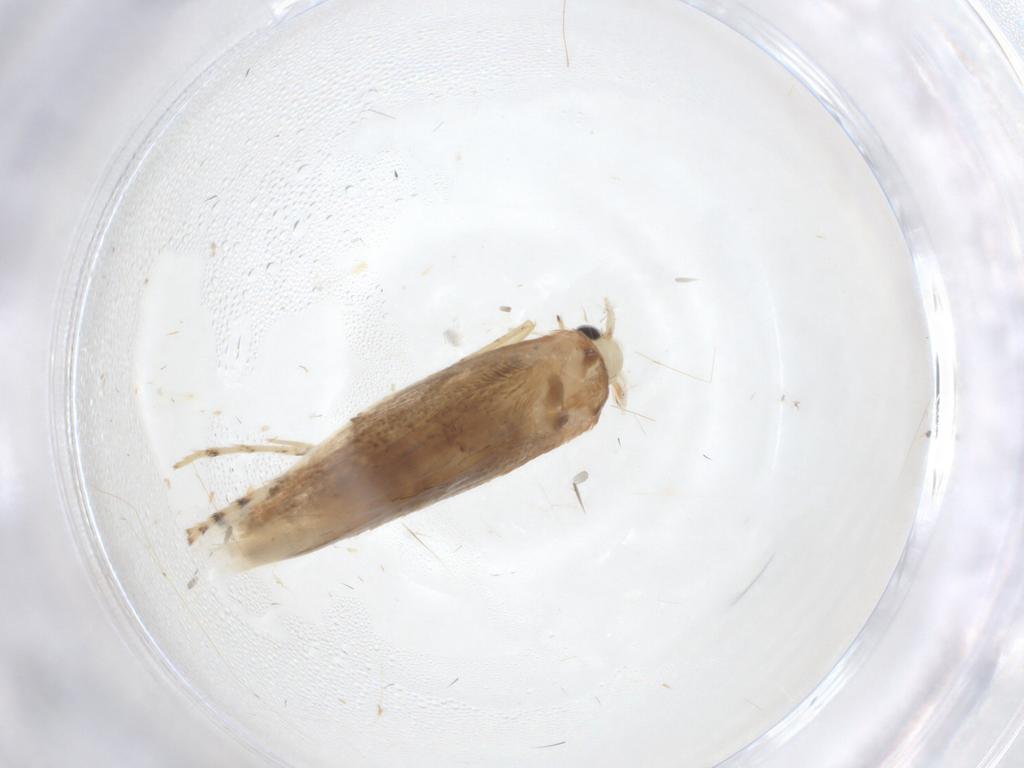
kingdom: Animalia
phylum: Arthropoda
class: Insecta
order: Lepidoptera
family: Gracillariidae
